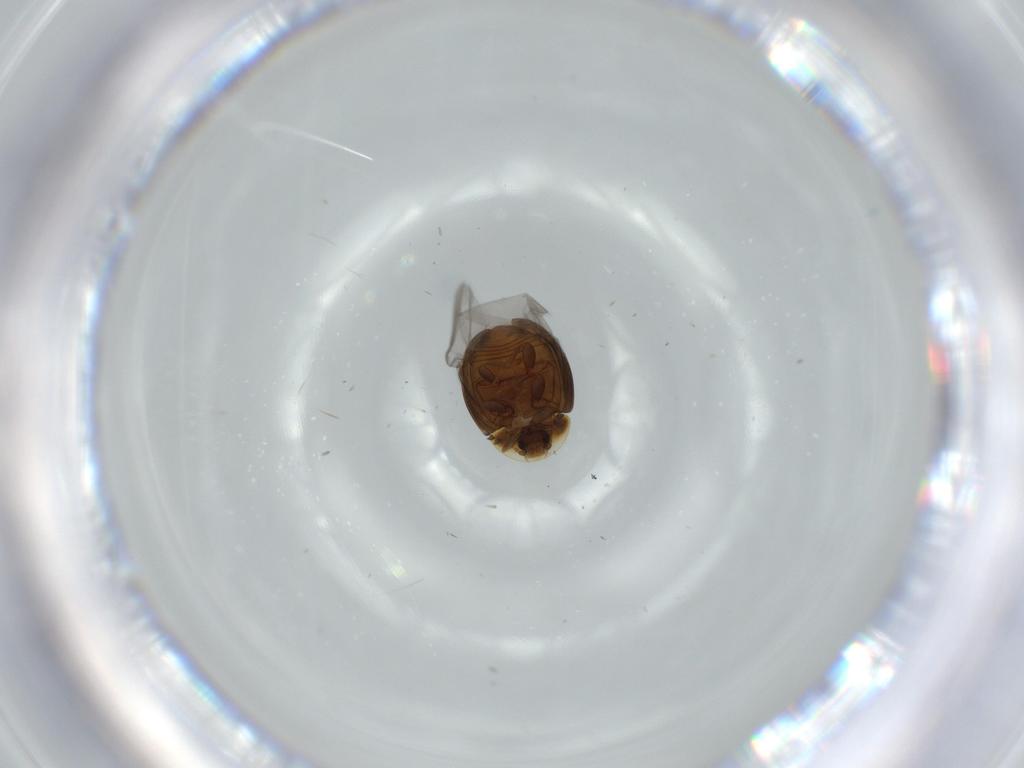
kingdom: Animalia
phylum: Arthropoda
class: Insecta
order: Coleoptera
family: Corylophidae
